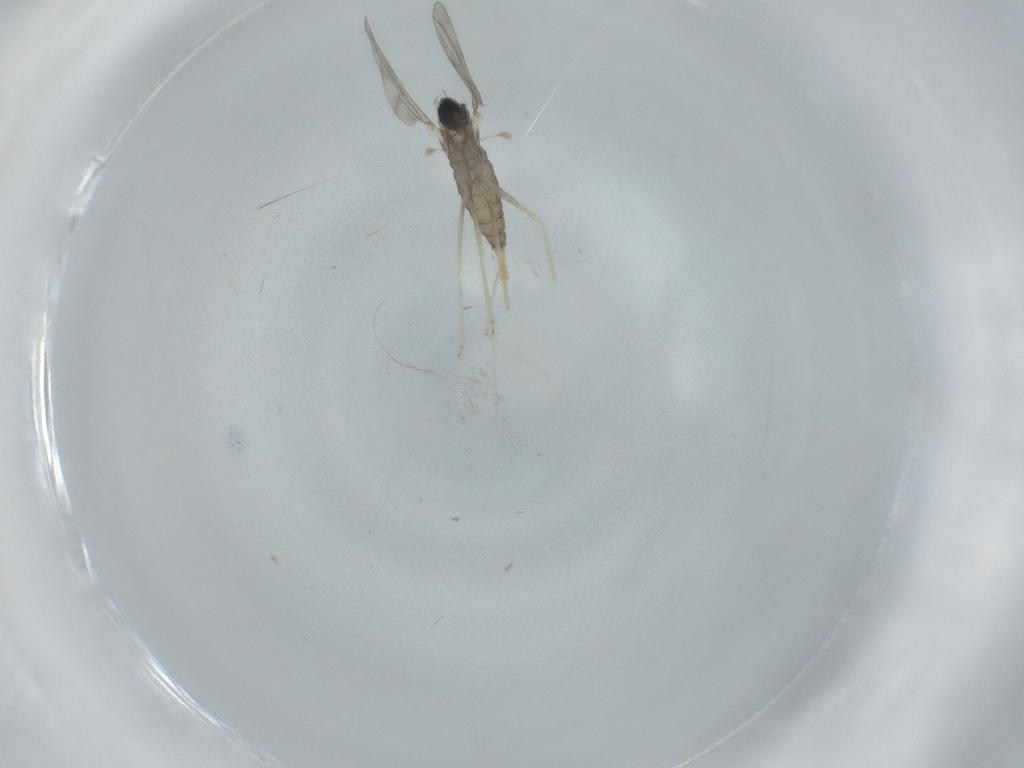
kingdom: Animalia
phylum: Arthropoda
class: Insecta
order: Diptera
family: Cecidomyiidae
